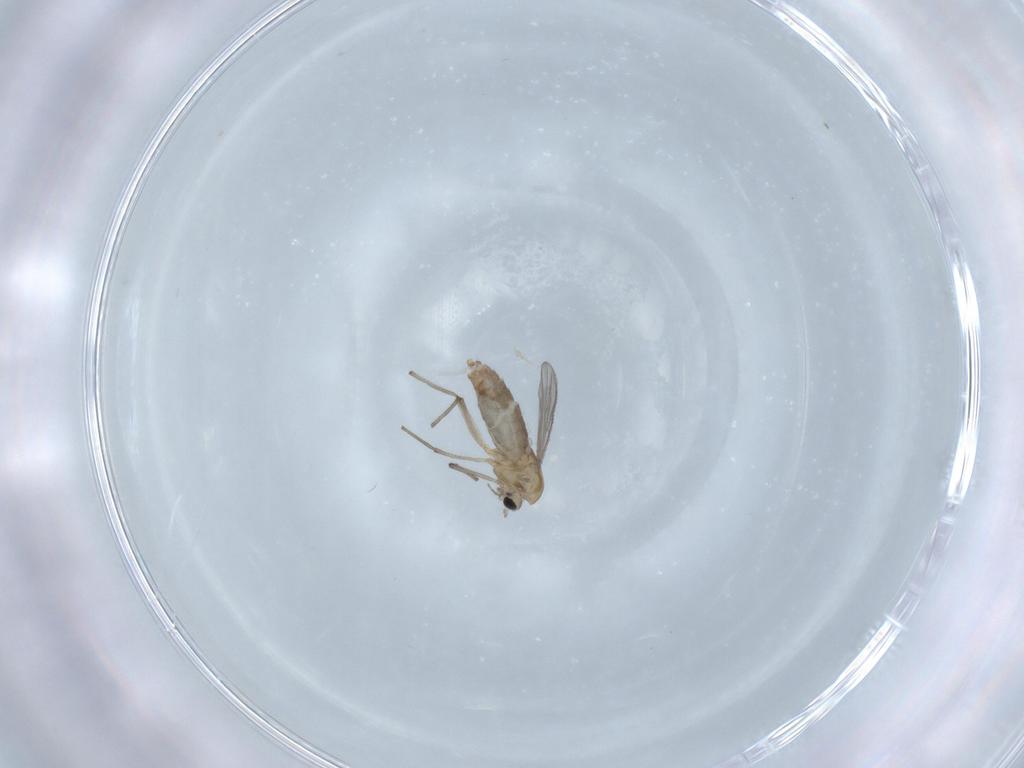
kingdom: Animalia
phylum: Arthropoda
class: Insecta
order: Diptera
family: Chironomidae
